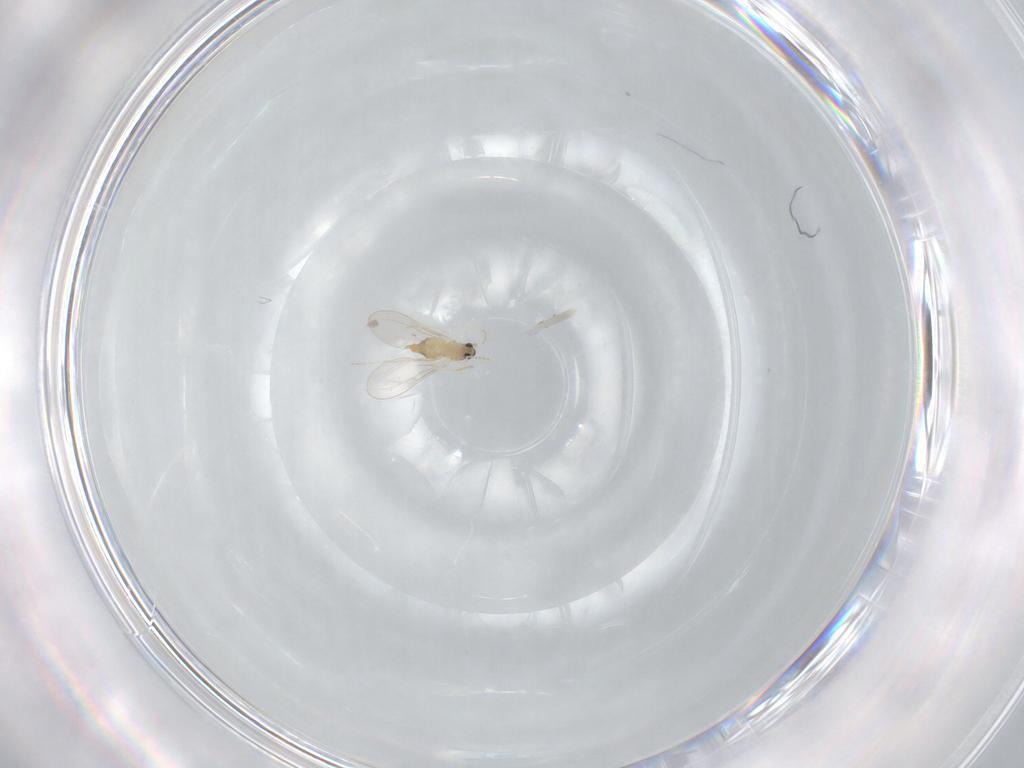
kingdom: Animalia
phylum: Arthropoda
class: Insecta
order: Diptera
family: Cecidomyiidae
